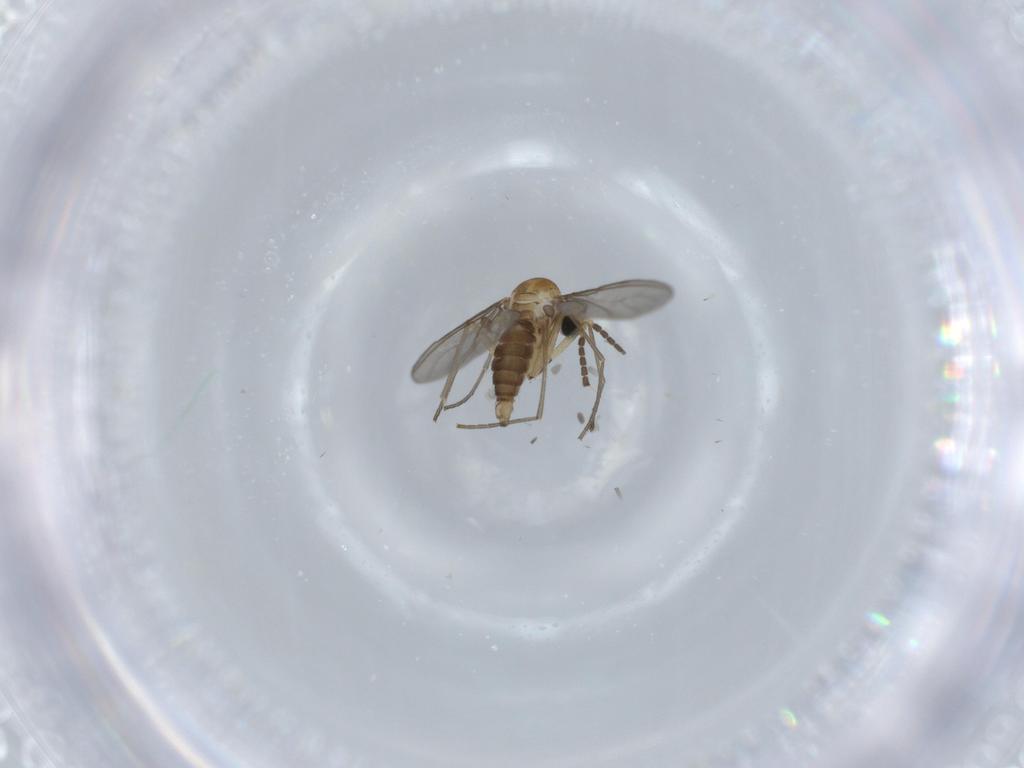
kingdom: Animalia
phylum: Arthropoda
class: Insecta
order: Diptera
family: Sciaridae
